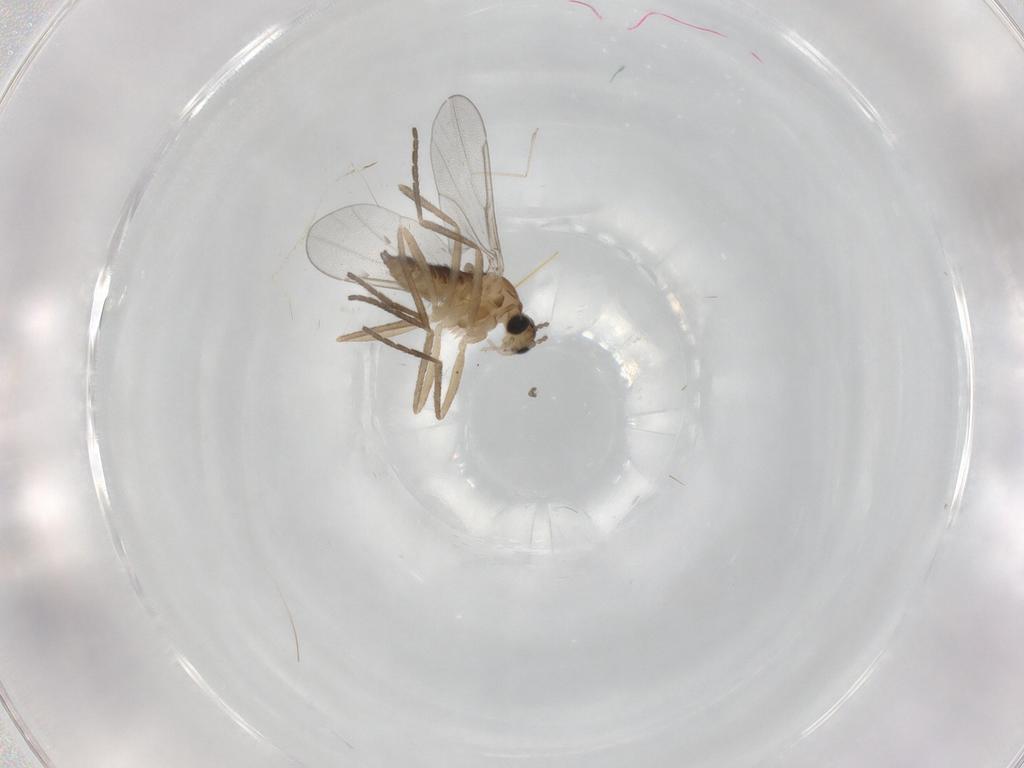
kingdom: Animalia
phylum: Arthropoda
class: Insecta
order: Diptera
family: Cecidomyiidae
